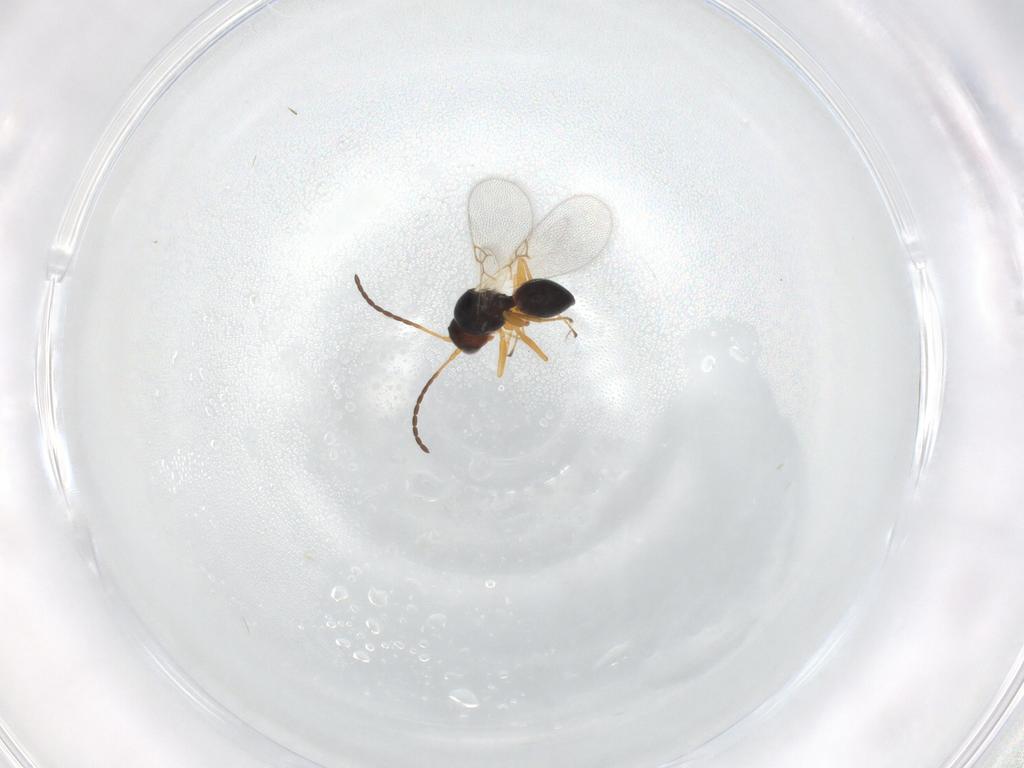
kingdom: Animalia
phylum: Arthropoda
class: Insecta
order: Hymenoptera
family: Figitidae
